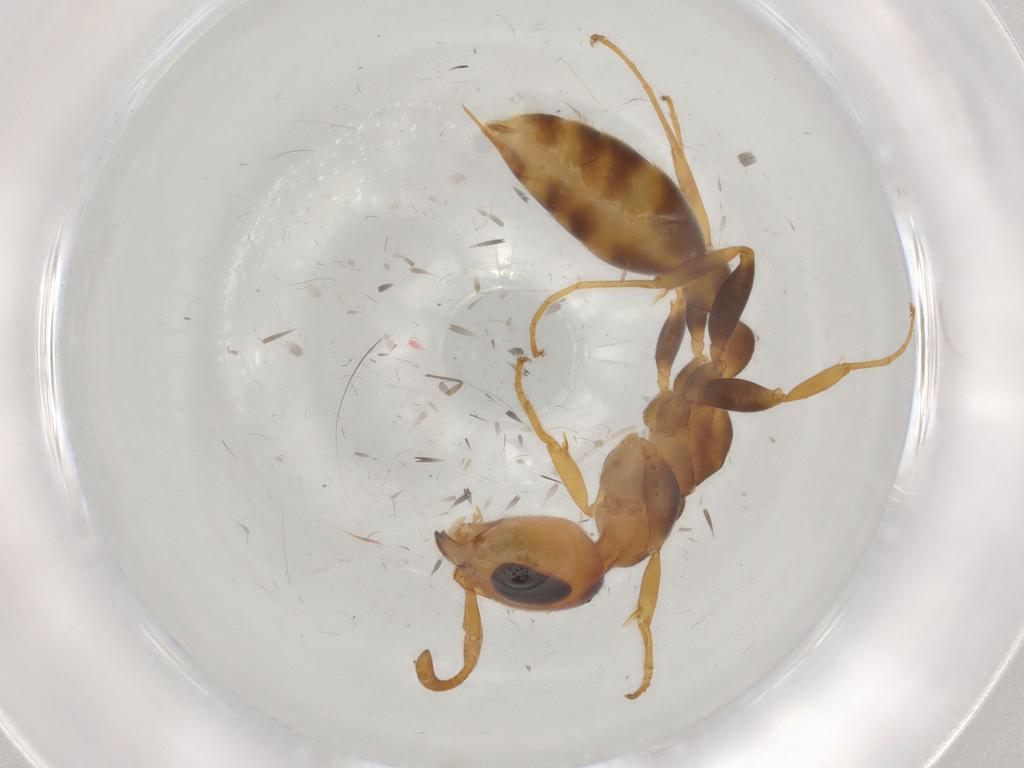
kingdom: Animalia
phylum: Arthropoda
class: Insecta
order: Hymenoptera
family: Formicidae
